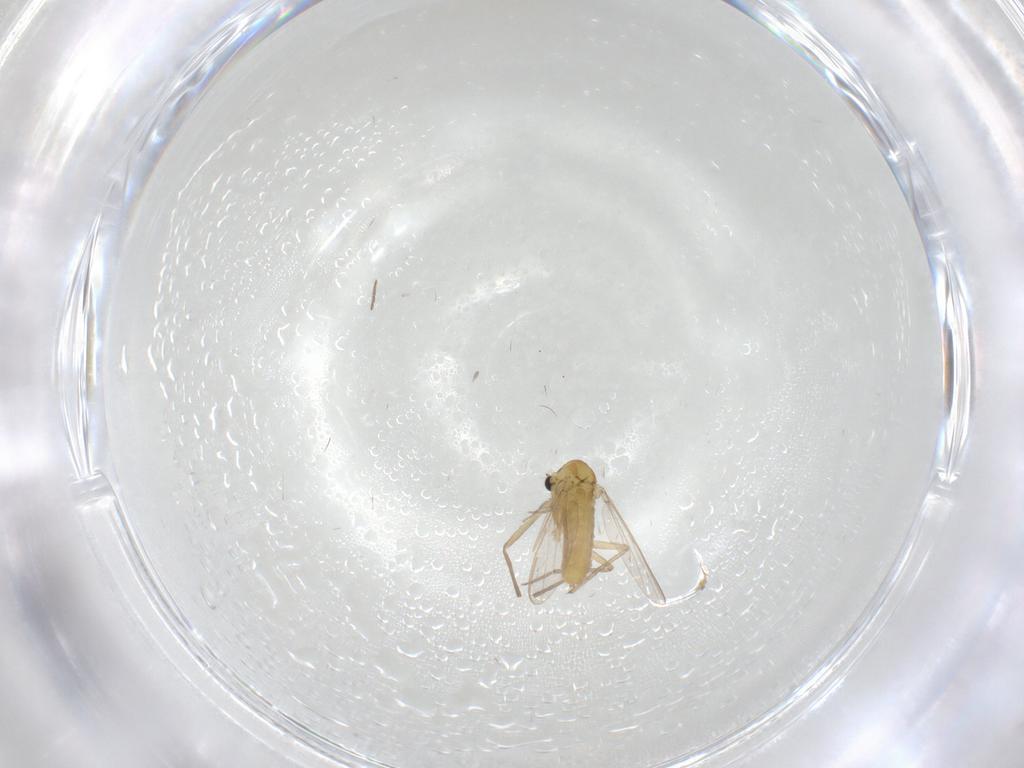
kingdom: Animalia
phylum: Arthropoda
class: Insecta
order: Diptera
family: Chironomidae
